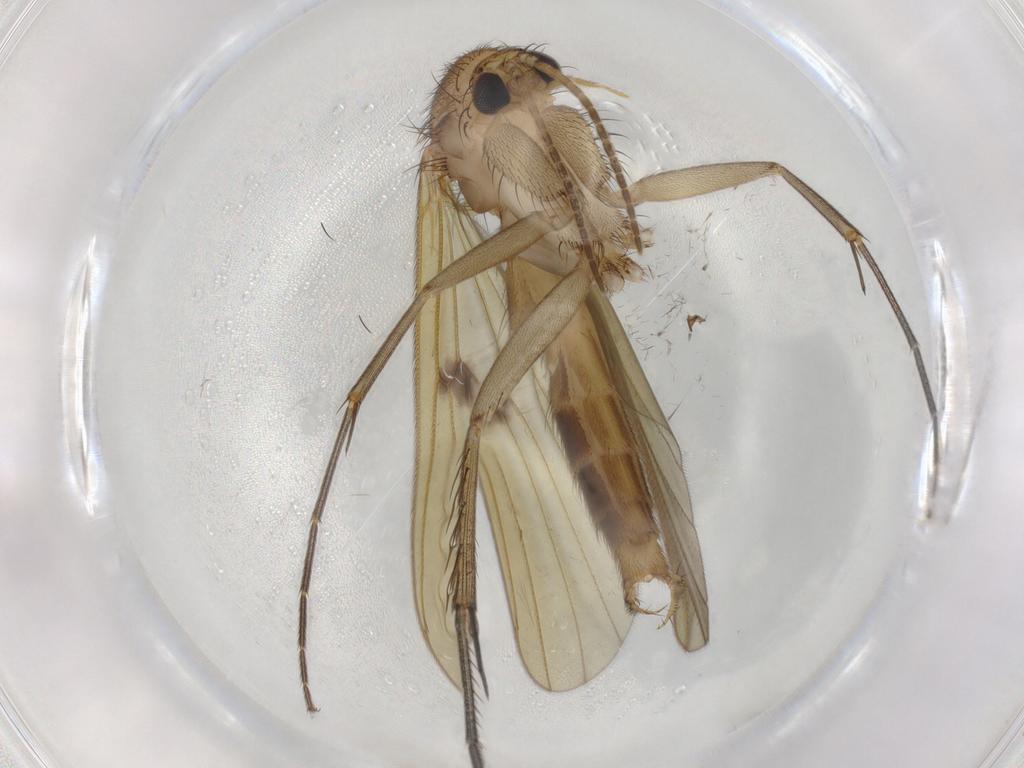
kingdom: Animalia
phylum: Arthropoda
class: Insecta
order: Diptera
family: Mycetophilidae
